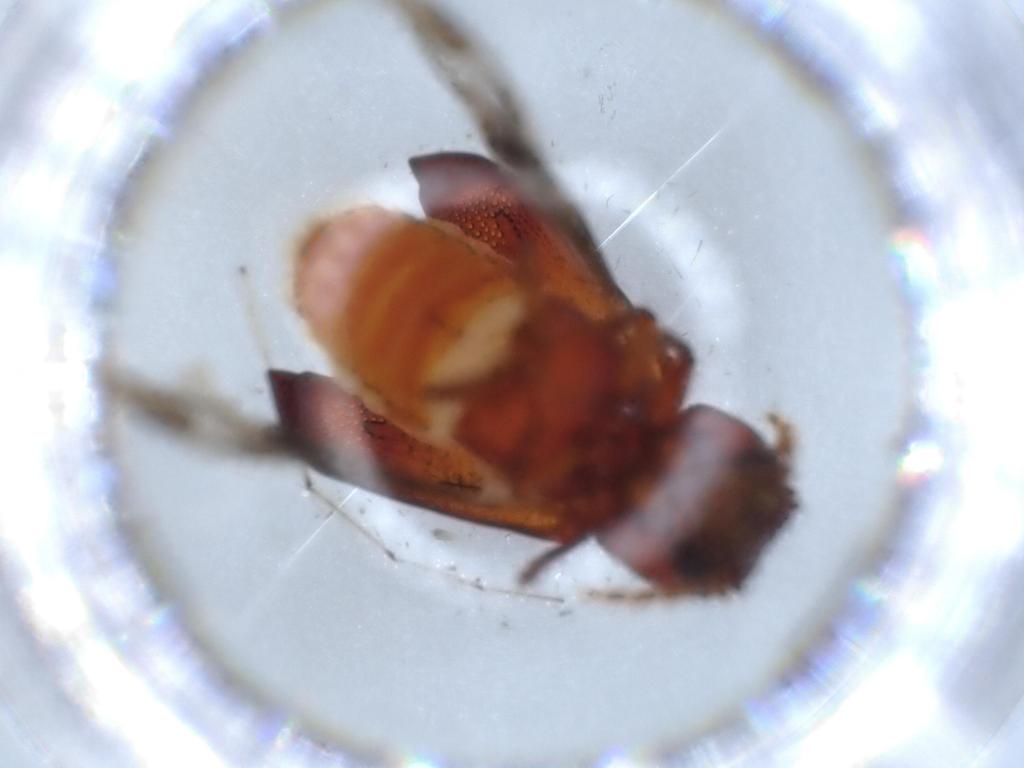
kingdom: Animalia
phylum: Arthropoda
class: Insecta
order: Coleoptera
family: Bostrichidae
